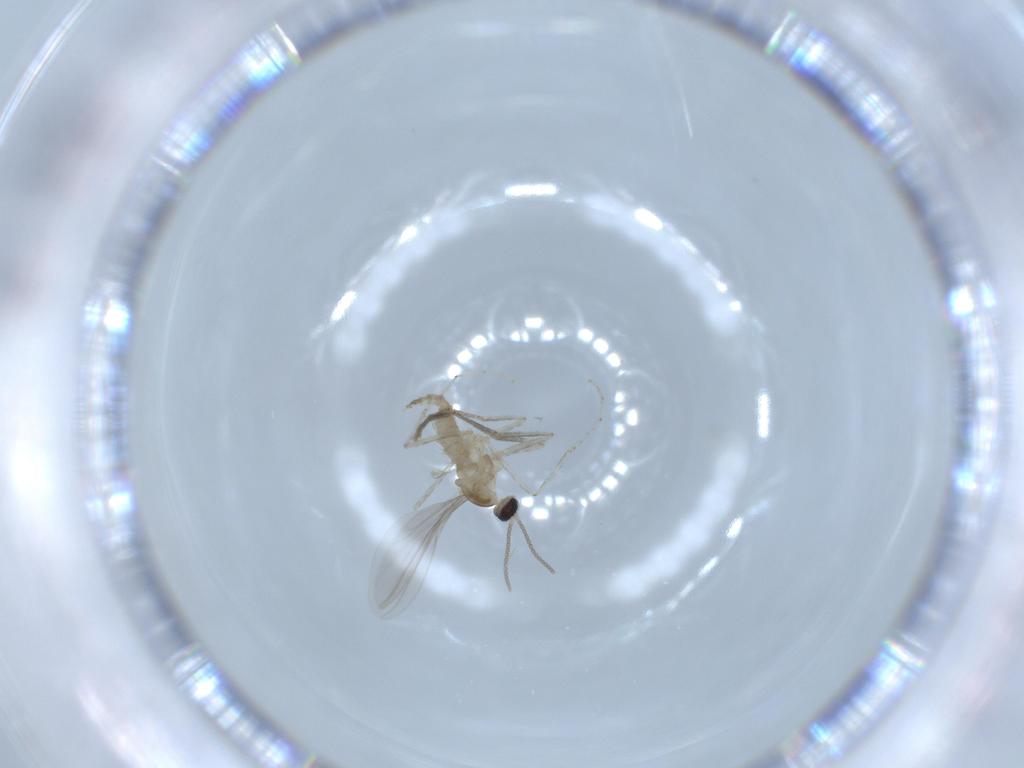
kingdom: Animalia
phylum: Arthropoda
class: Insecta
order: Diptera
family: Cecidomyiidae
